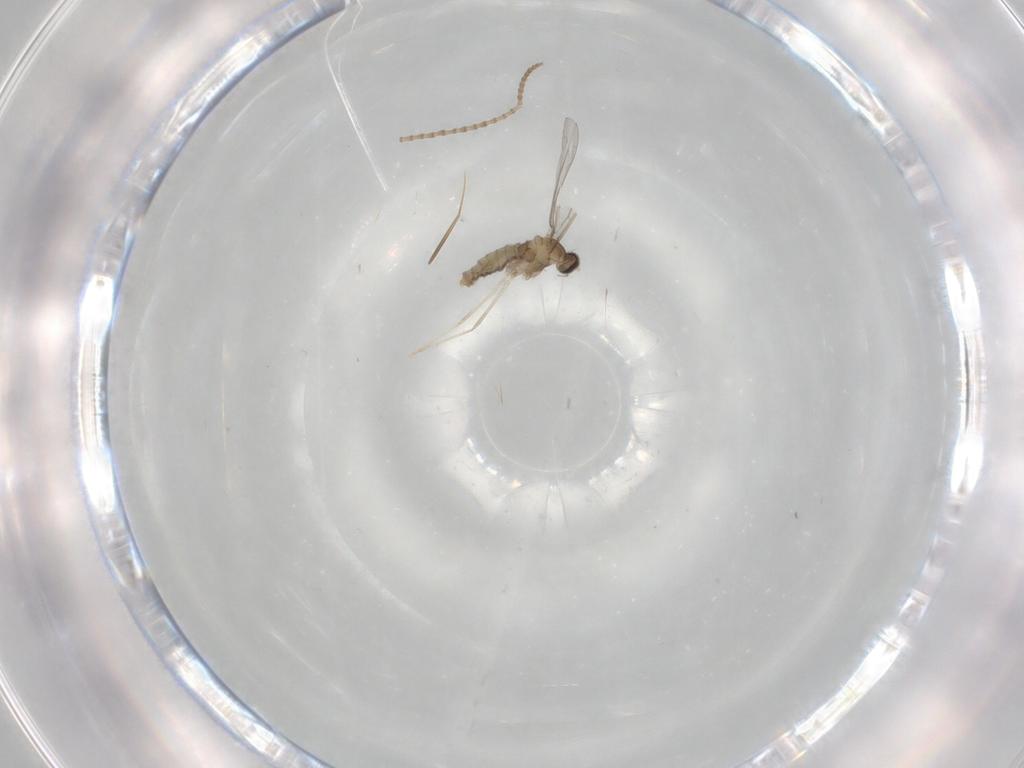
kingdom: Animalia
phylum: Arthropoda
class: Insecta
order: Diptera
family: Cecidomyiidae
